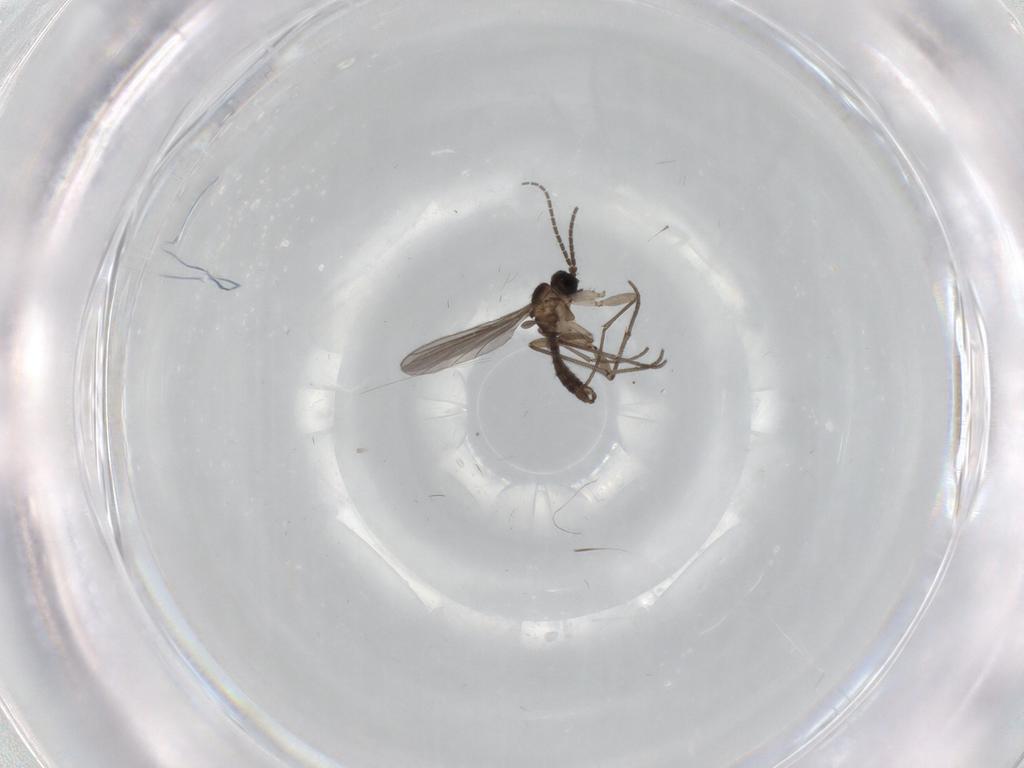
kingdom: Animalia
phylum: Arthropoda
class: Insecta
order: Diptera
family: Sciaridae
